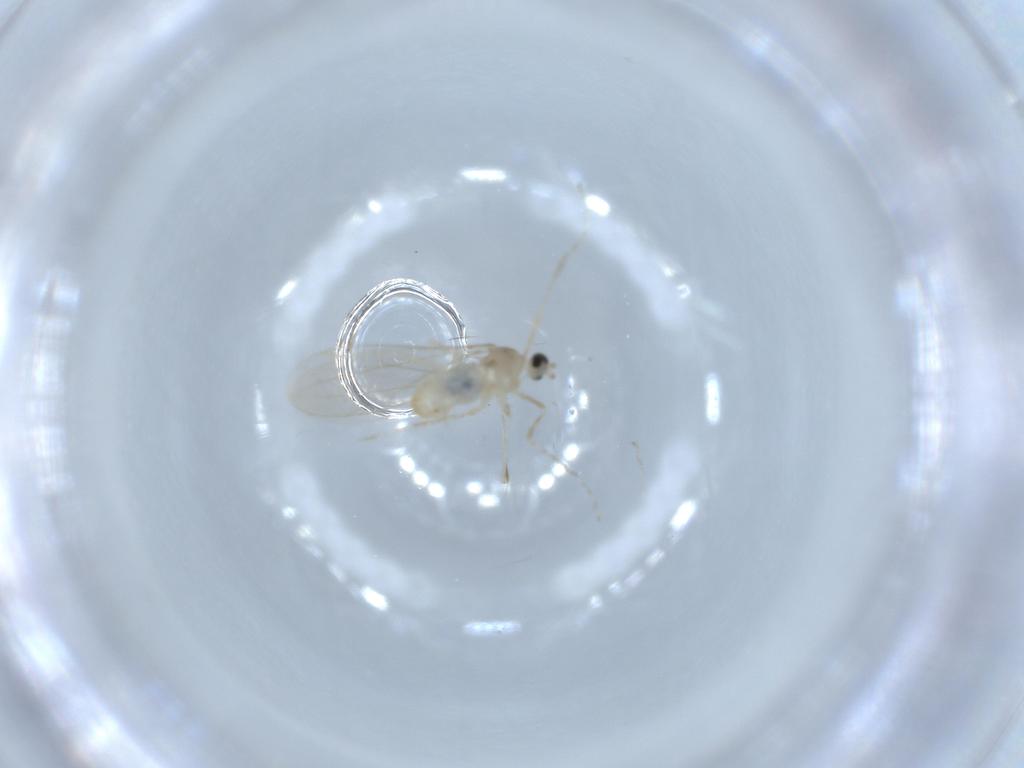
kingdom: Animalia
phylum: Arthropoda
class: Insecta
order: Diptera
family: Cecidomyiidae
